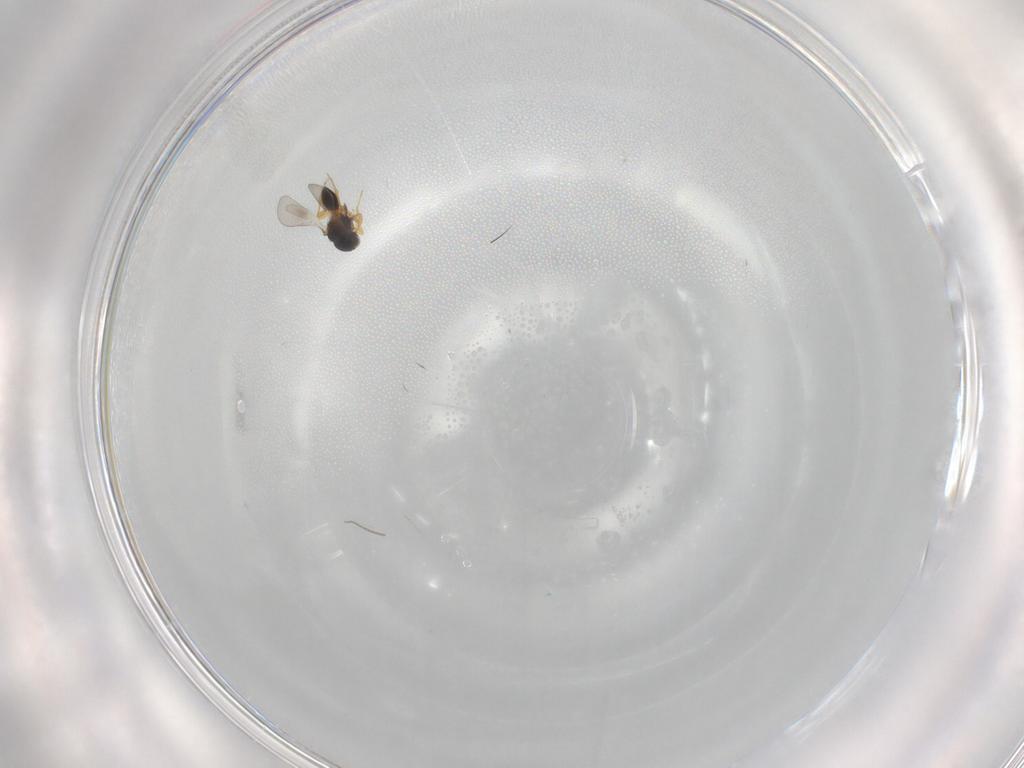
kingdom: Animalia
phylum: Arthropoda
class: Insecta
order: Hymenoptera
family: Platygastridae
